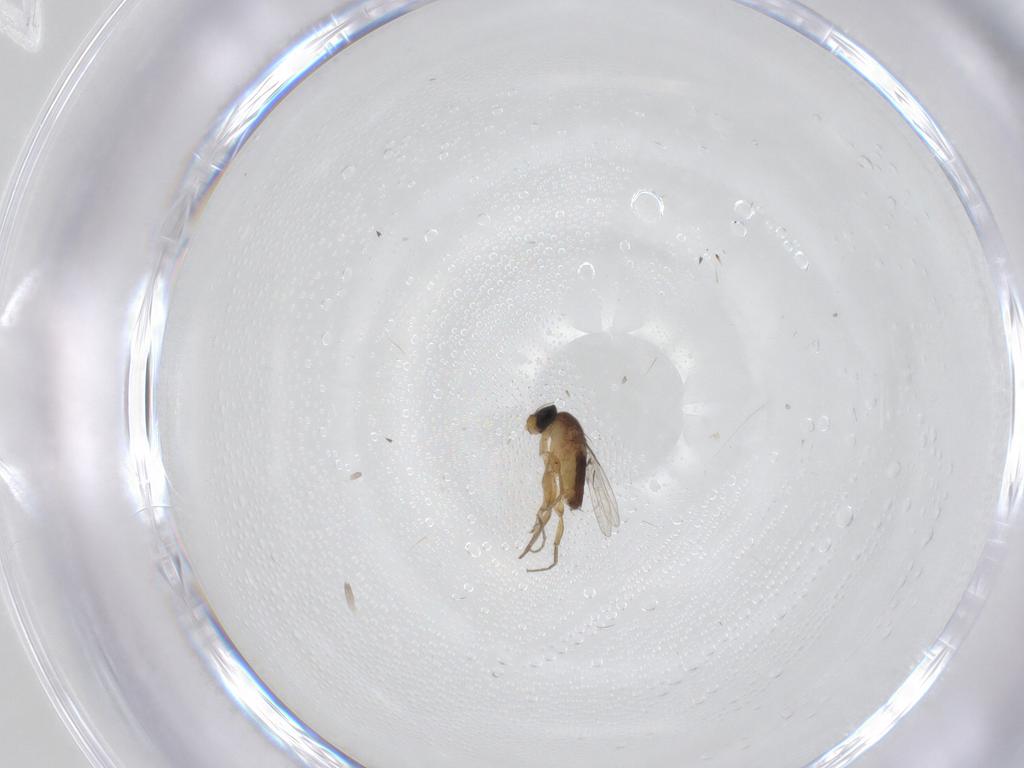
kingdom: Animalia
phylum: Arthropoda
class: Insecta
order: Diptera
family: Phoridae
